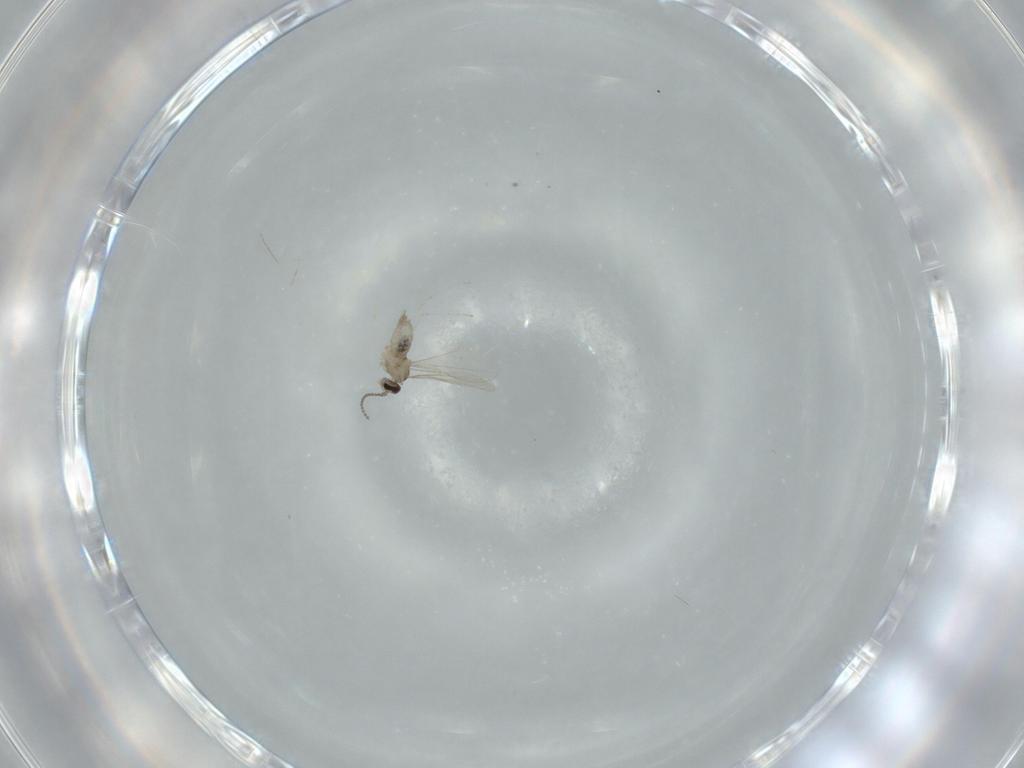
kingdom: Animalia
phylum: Arthropoda
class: Insecta
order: Diptera
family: Cecidomyiidae
